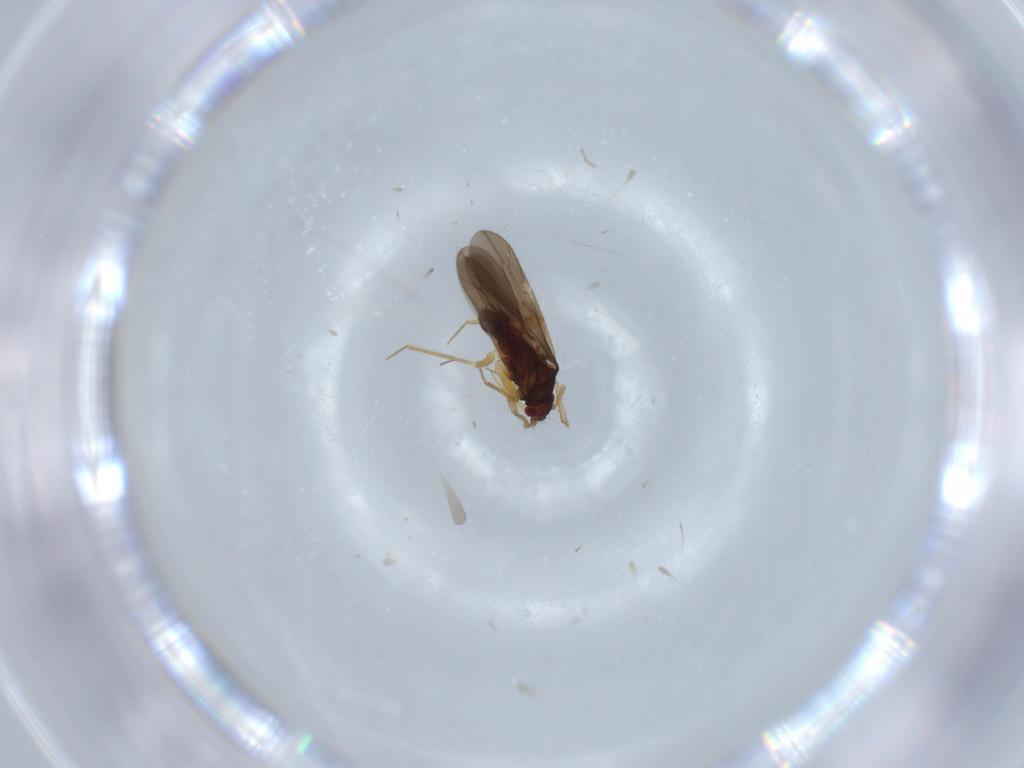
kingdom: Animalia
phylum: Arthropoda
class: Insecta
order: Hemiptera
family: Ceratocombidae
